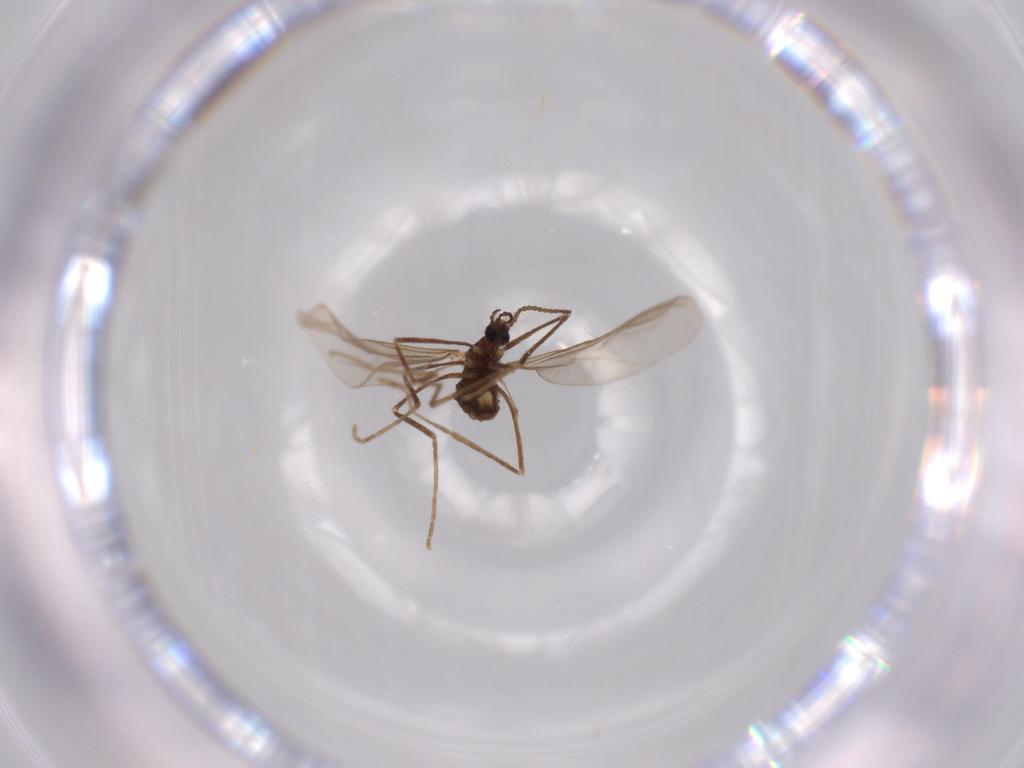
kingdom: Animalia
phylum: Arthropoda
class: Insecta
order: Diptera
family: Cecidomyiidae
